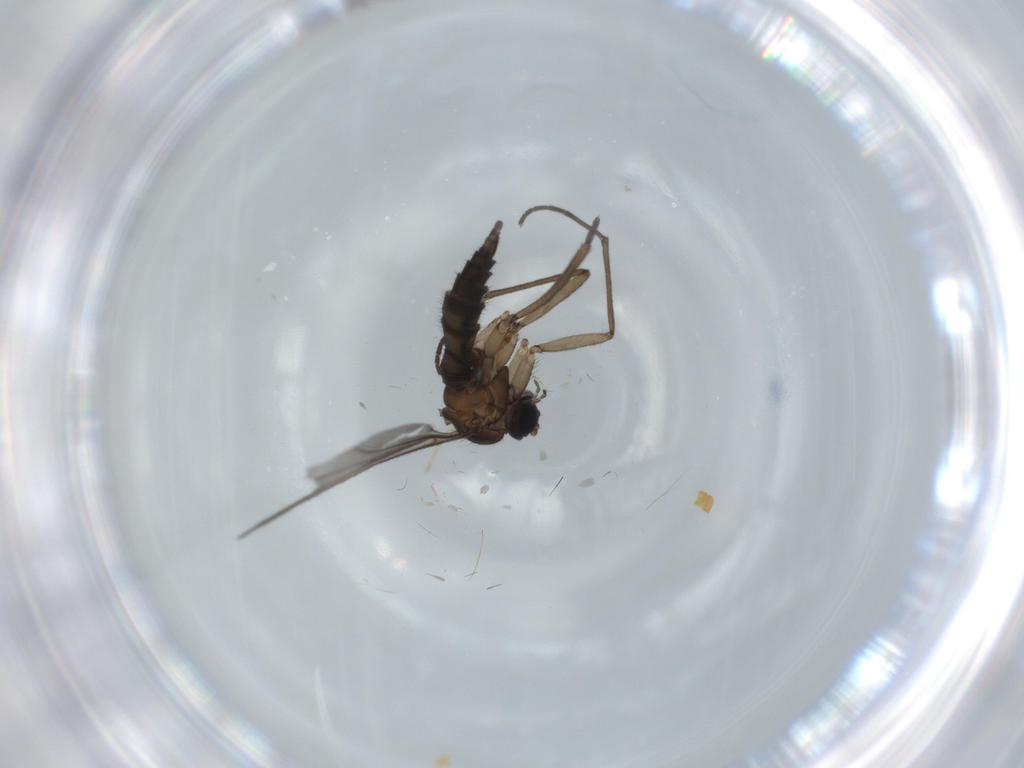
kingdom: Animalia
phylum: Arthropoda
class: Insecta
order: Diptera
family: Sciaridae
